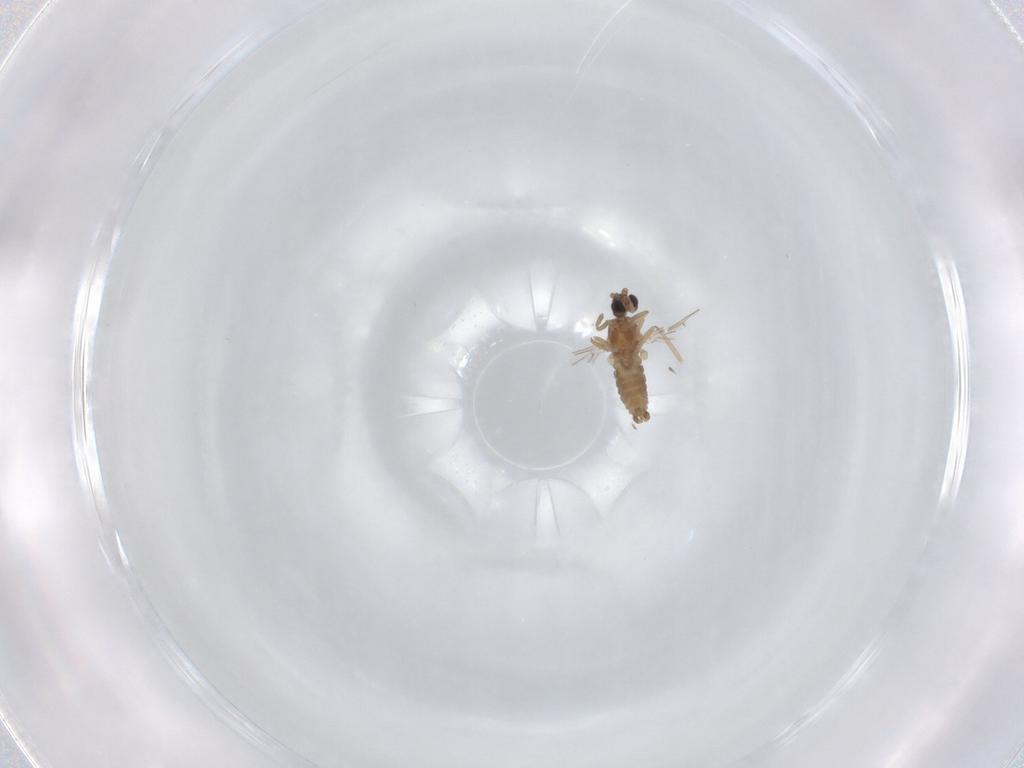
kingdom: Animalia
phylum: Arthropoda
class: Insecta
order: Diptera
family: Cecidomyiidae
